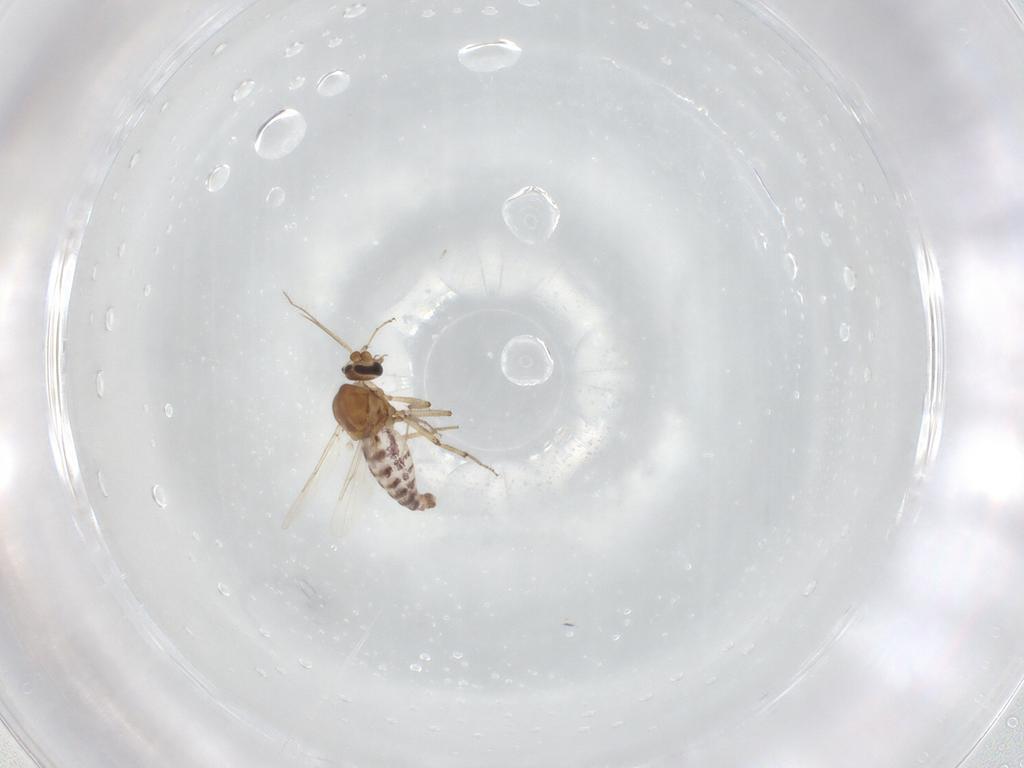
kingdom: Animalia
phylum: Arthropoda
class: Insecta
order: Diptera
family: Ceratopogonidae
